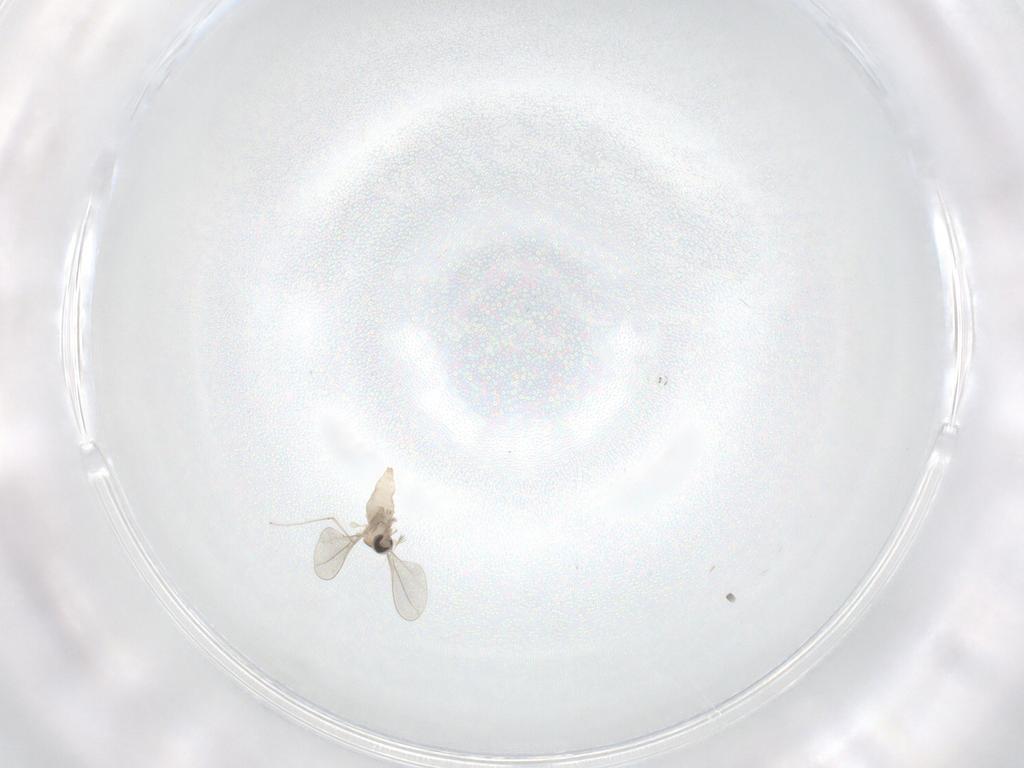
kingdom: Animalia
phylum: Arthropoda
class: Insecta
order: Diptera
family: Cecidomyiidae
